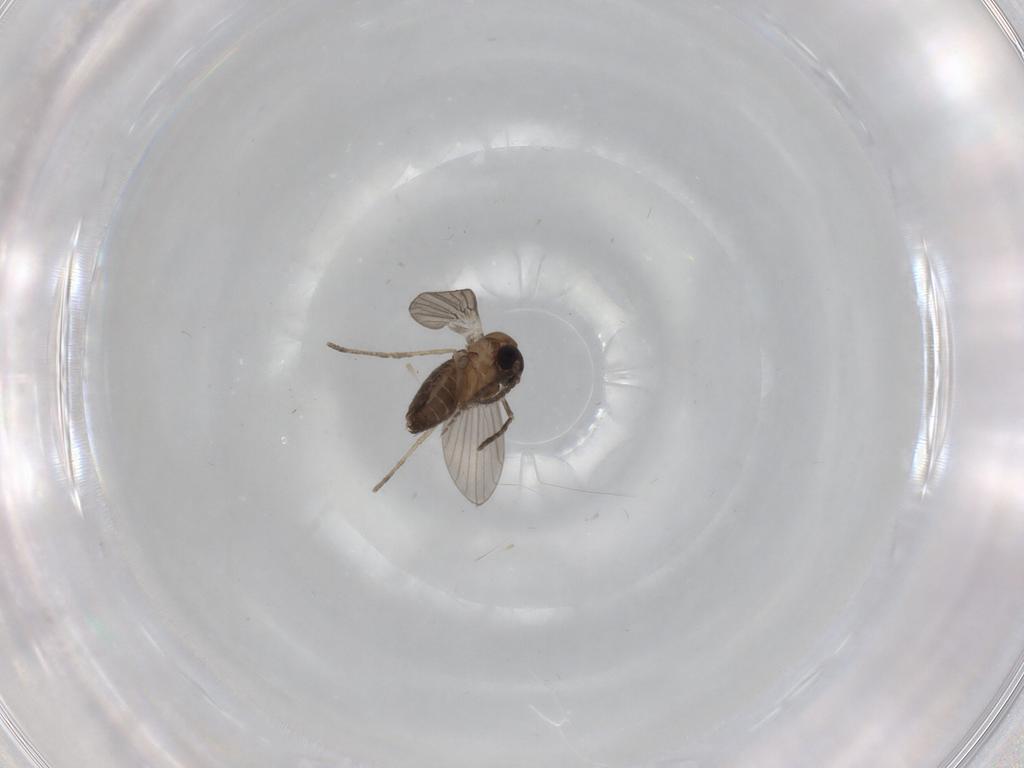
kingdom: Animalia
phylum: Arthropoda
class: Insecta
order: Diptera
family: Psychodidae
